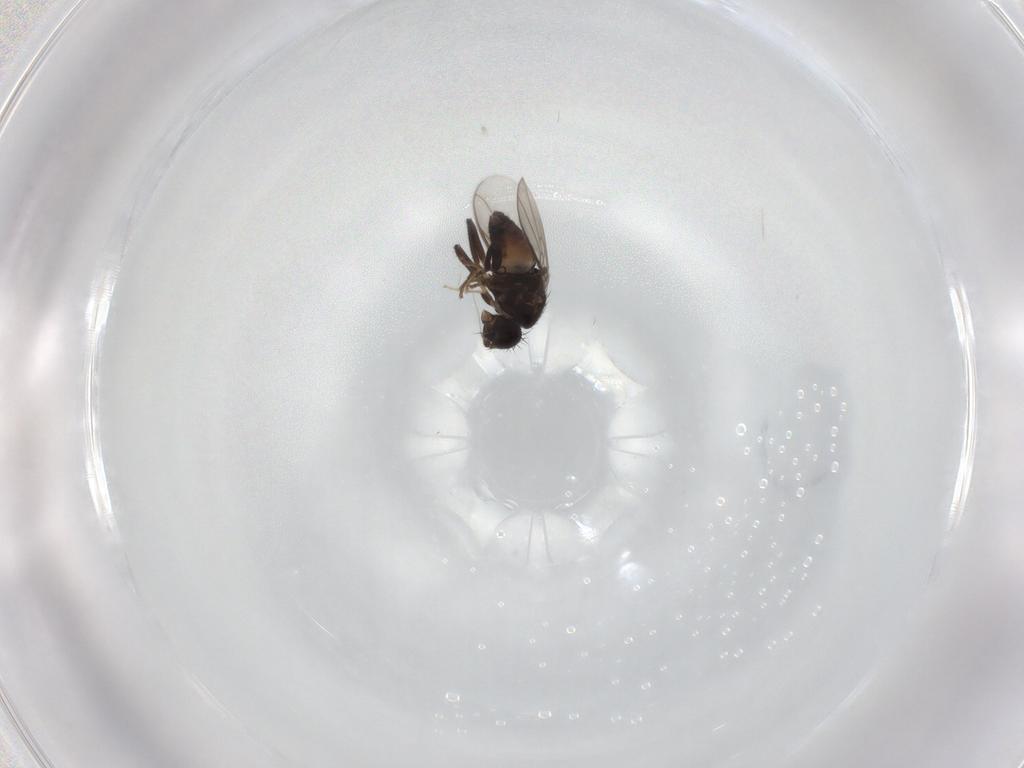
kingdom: Animalia
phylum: Arthropoda
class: Insecta
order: Diptera
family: Sphaeroceridae
